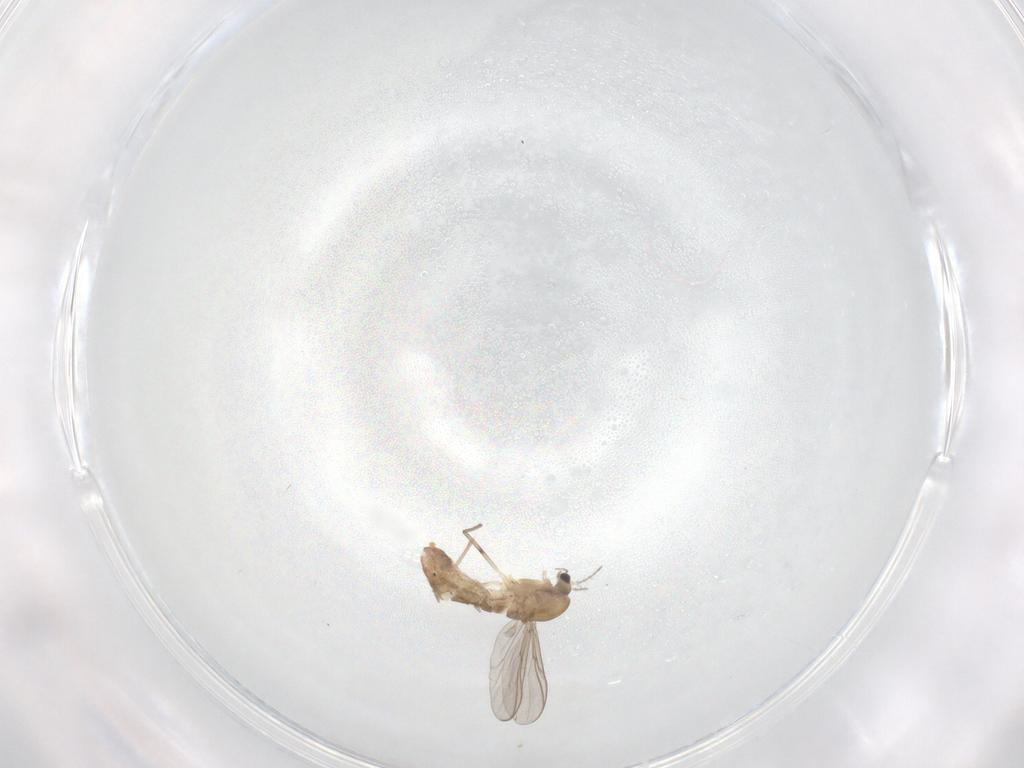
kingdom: Animalia
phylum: Arthropoda
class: Insecta
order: Diptera
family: Chironomidae
